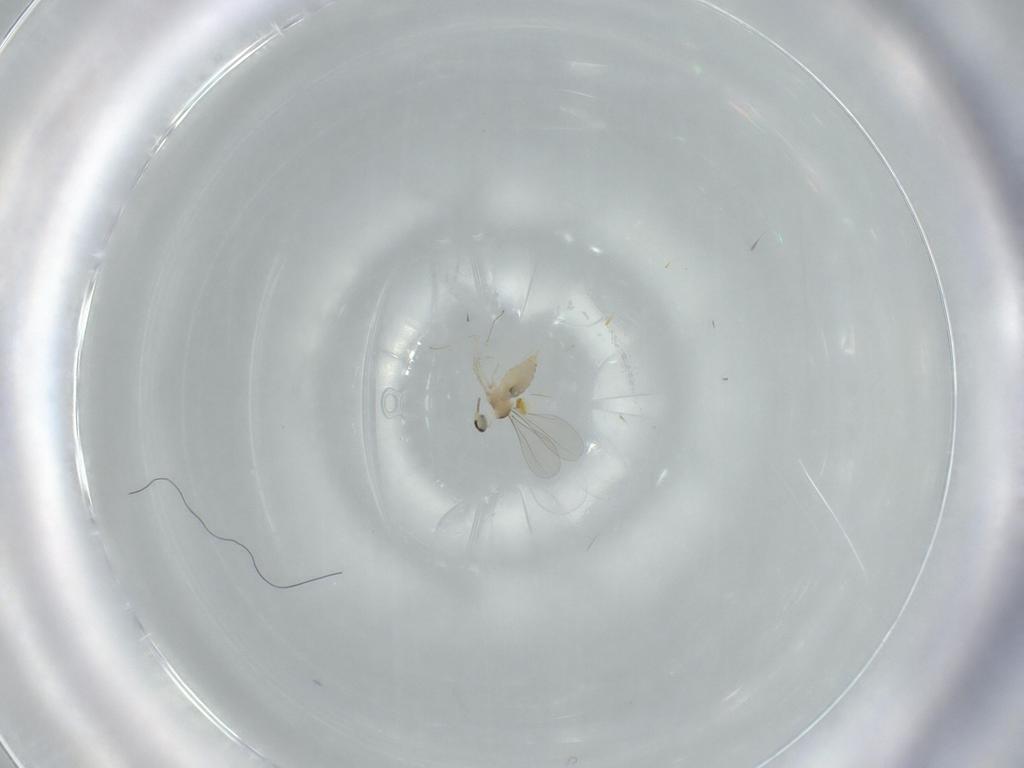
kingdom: Animalia
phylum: Arthropoda
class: Insecta
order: Diptera
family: Cecidomyiidae
